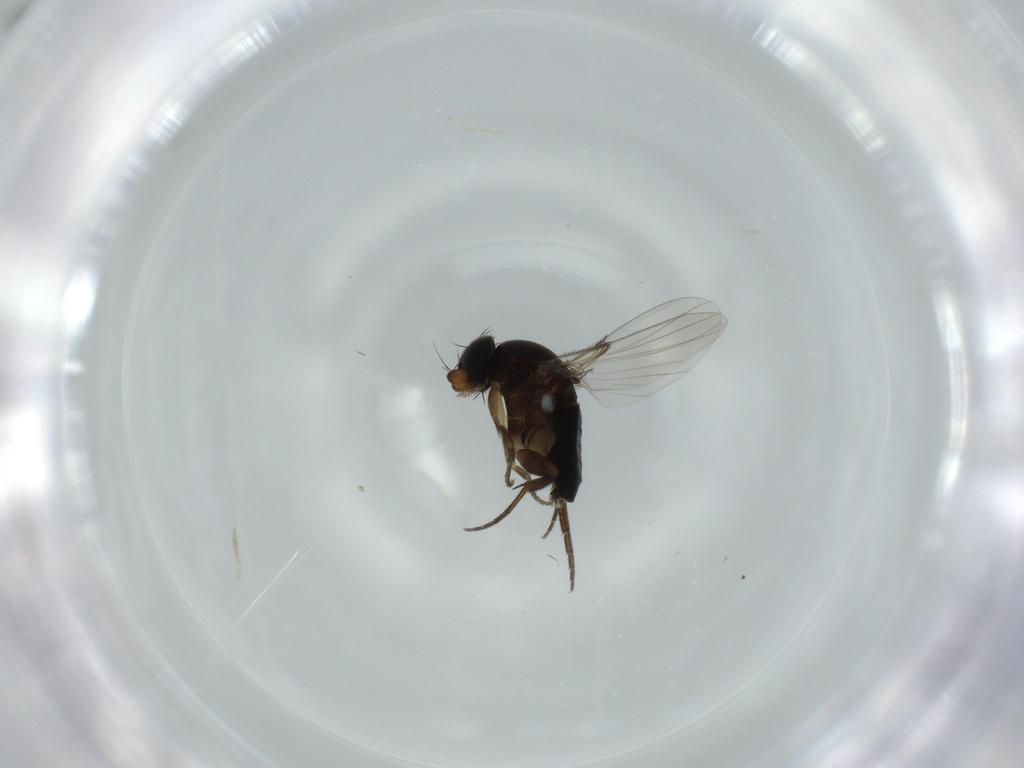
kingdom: Animalia
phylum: Arthropoda
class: Insecta
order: Diptera
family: Phoridae
